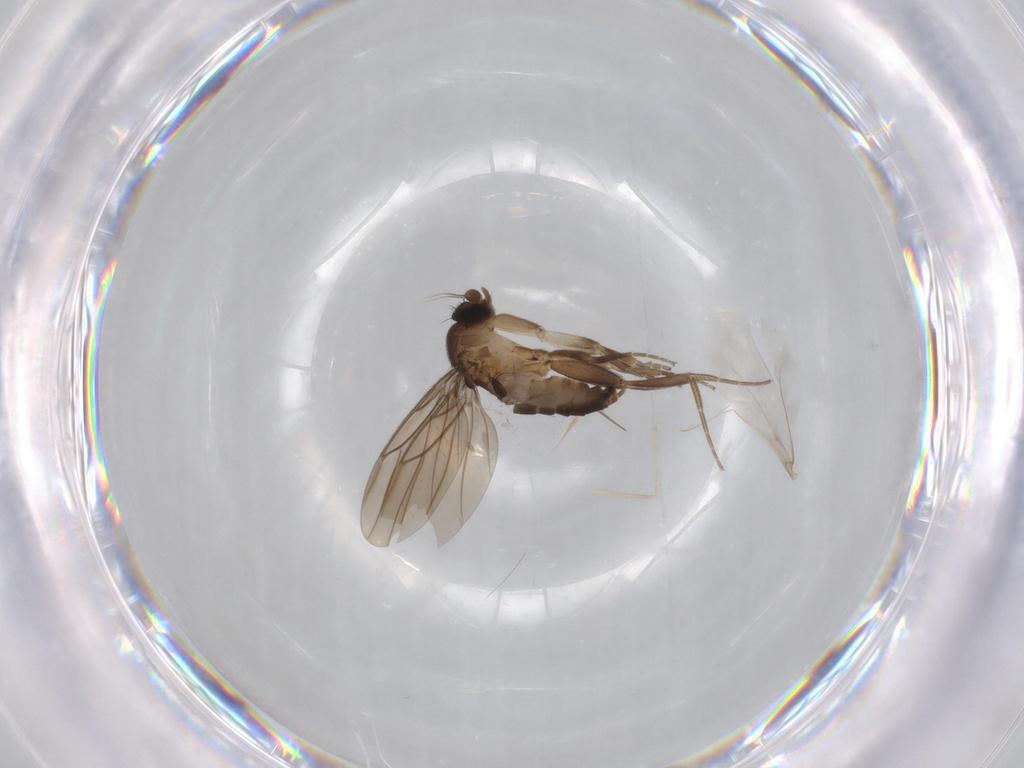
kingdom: Animalia
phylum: Arthropoda
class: Insecta
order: Diptera
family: Cecidomyiidae
